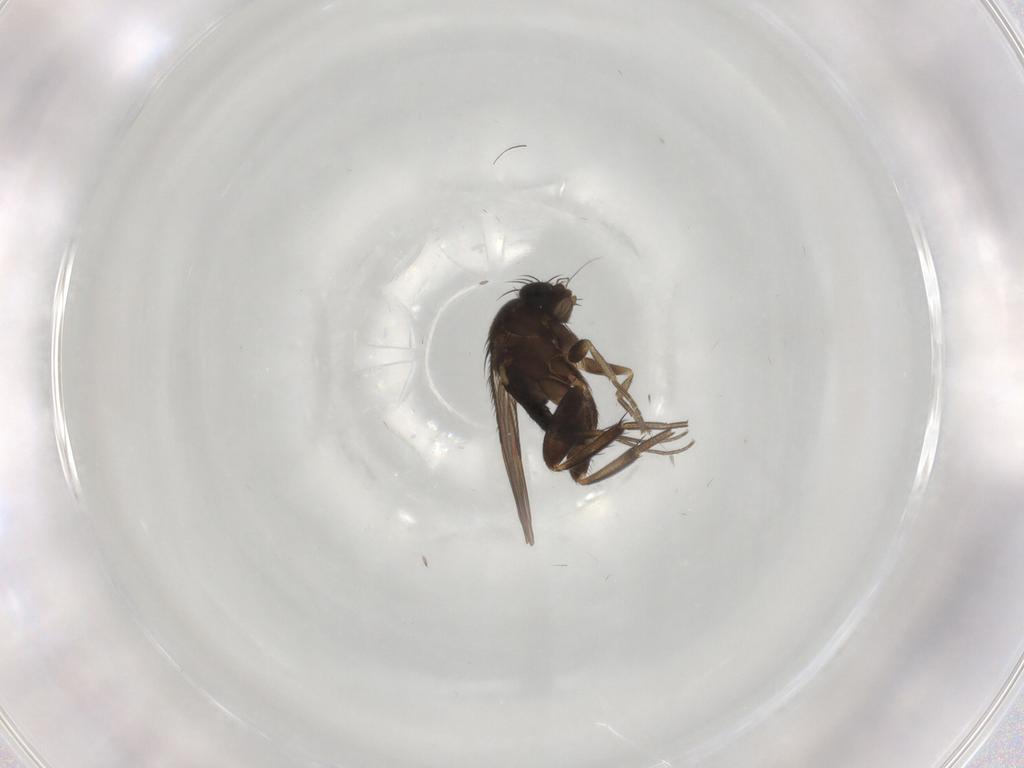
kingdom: Animalia
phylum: Arthropoda
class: Insecta
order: Diptera
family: Phoridae
